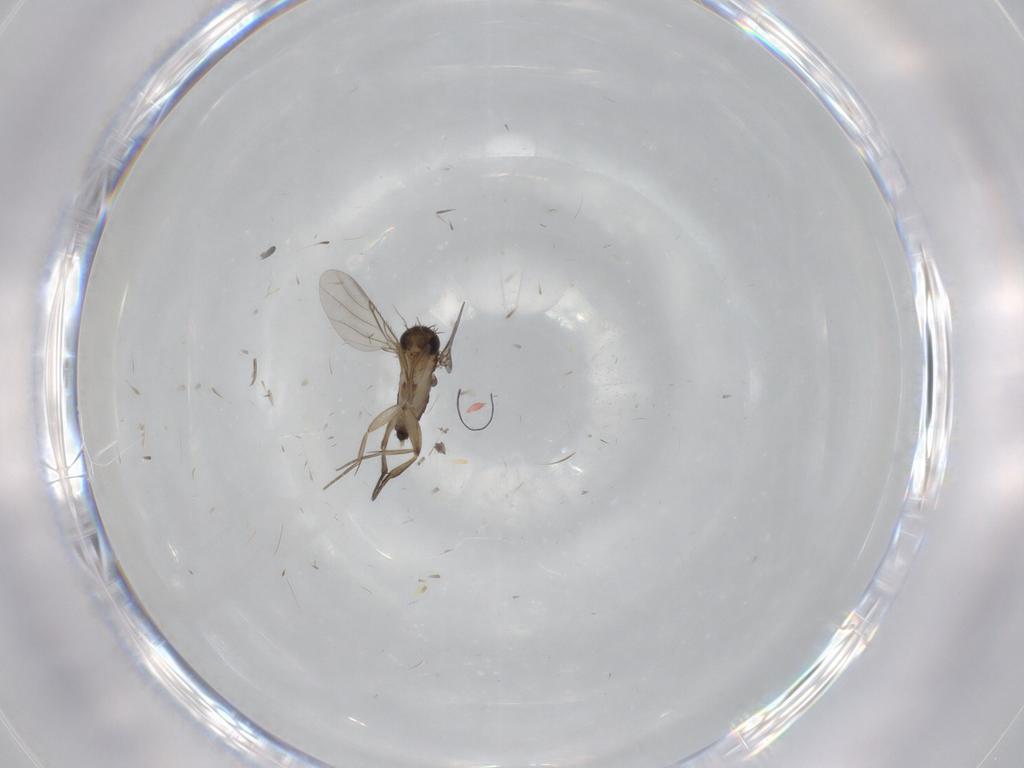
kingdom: Animalia
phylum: Arthropoda
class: Insecta
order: Diptera
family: Phoridae
